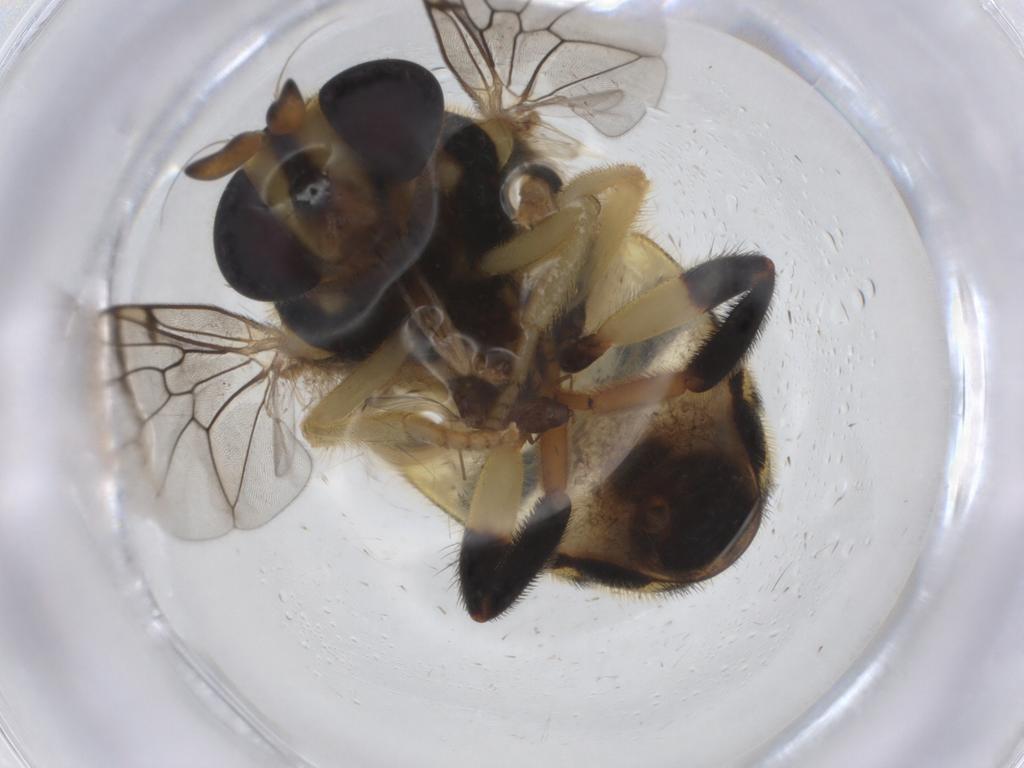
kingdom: Animalia
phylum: Arthropoda
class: Insecta
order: Diptera
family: Syrphidae
